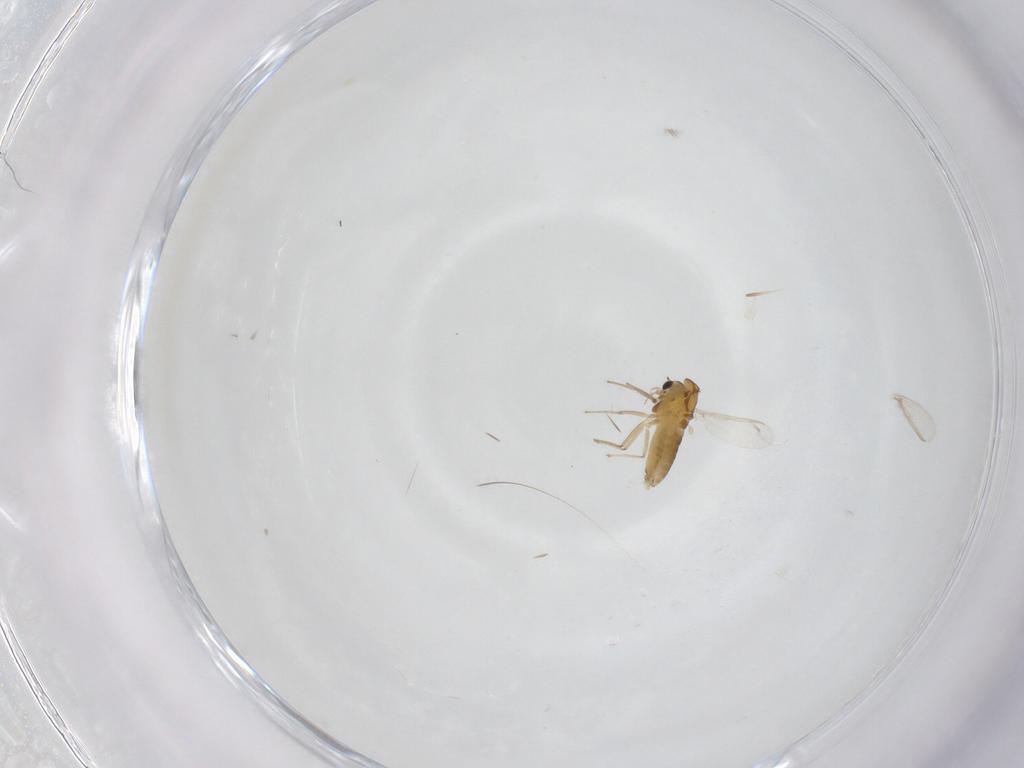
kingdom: Animalia
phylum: Arthropoda
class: Insecta
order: Diptera
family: Chironomidae
